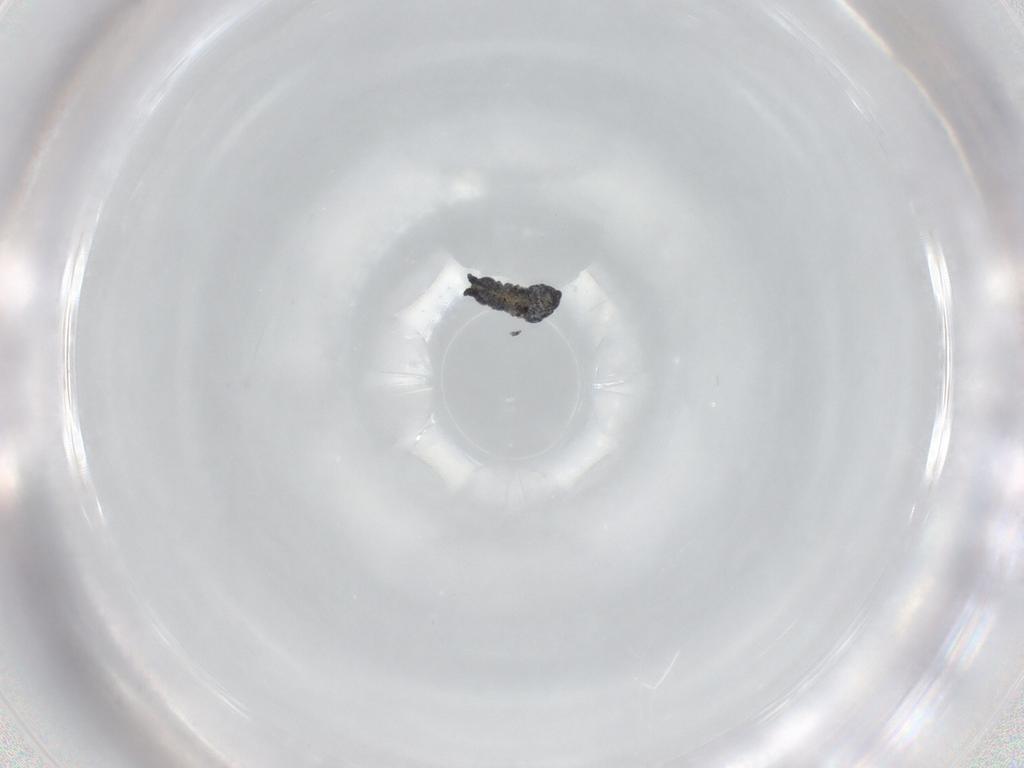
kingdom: Animalia
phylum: Arthropoda
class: Collembola
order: Poduromorpha
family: Neanuridae
